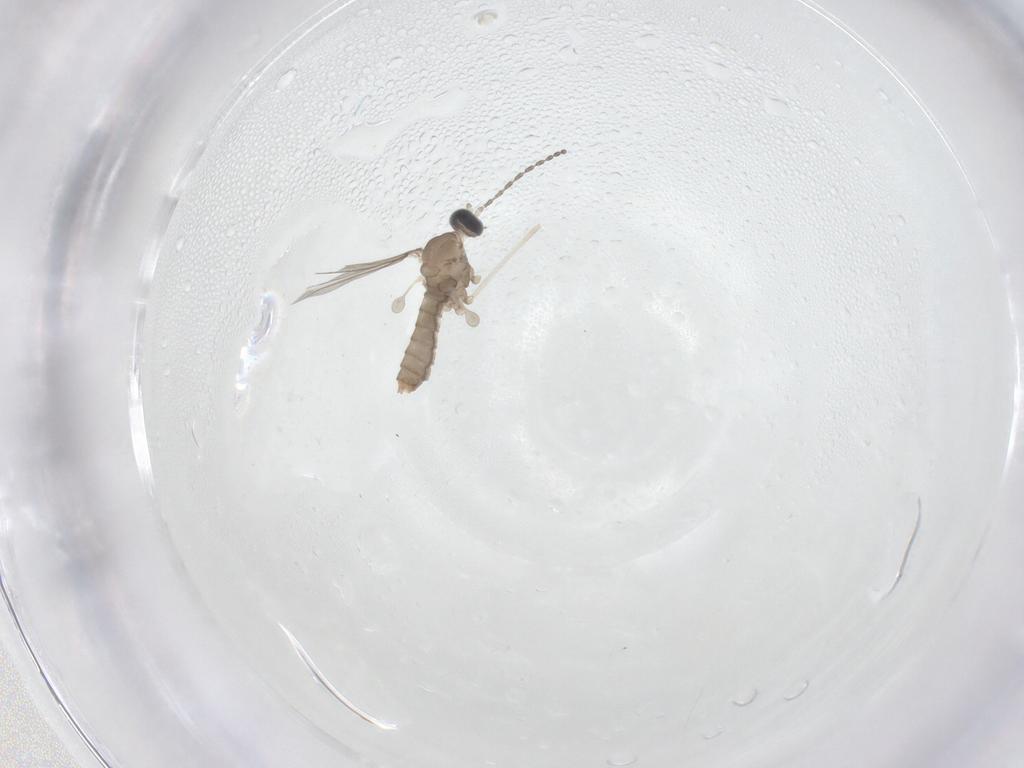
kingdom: Animalia
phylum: Arthropoda
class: Insecta
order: Diptera
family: Cecidomyiidae
